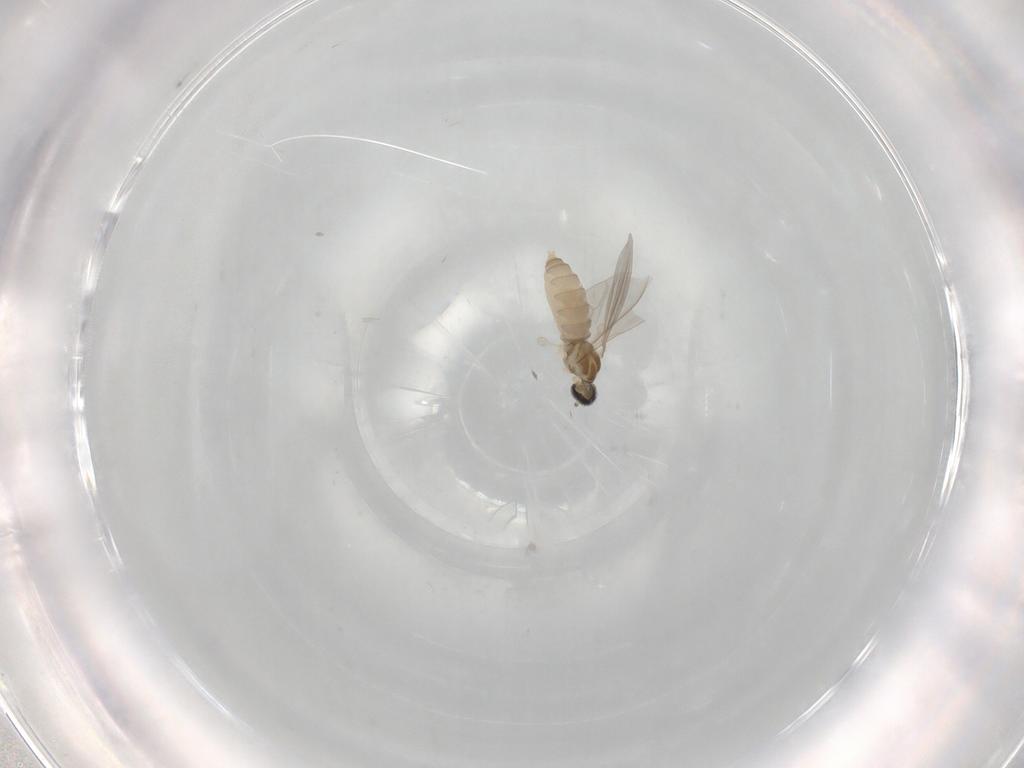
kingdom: Animalia
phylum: Arthropoda
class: Insecta
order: Diptera
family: Cecidomyiidae
